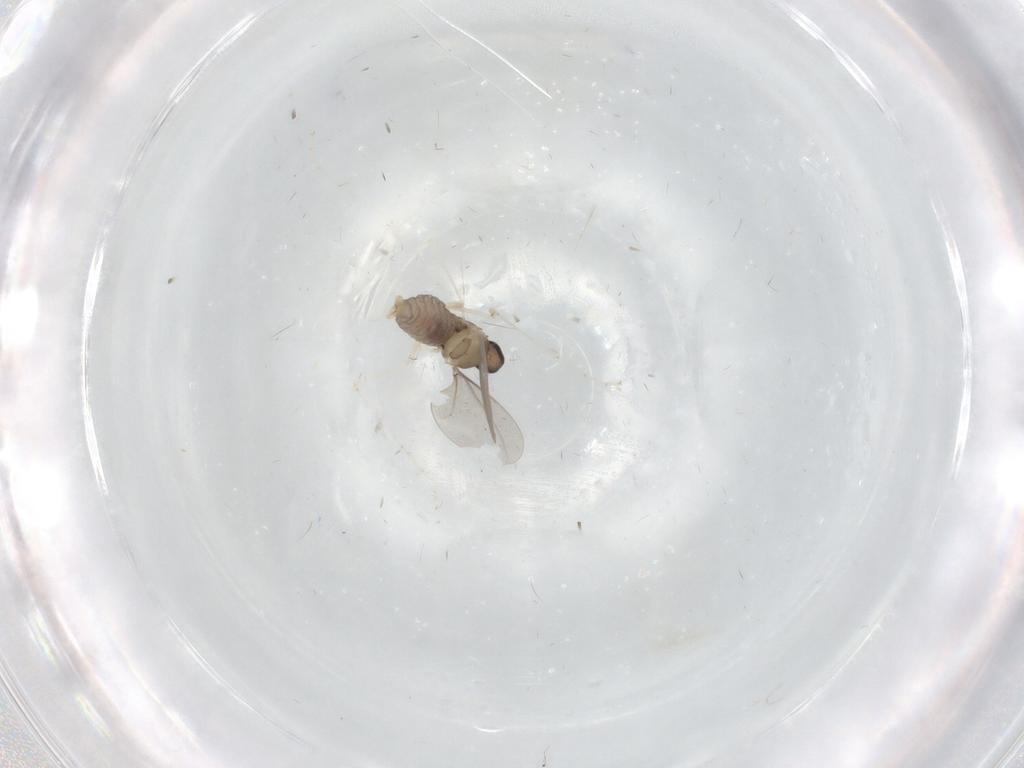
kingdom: Animalia
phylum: Arthropoda
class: Insecta
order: Diptera
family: Cecidomyiidae
